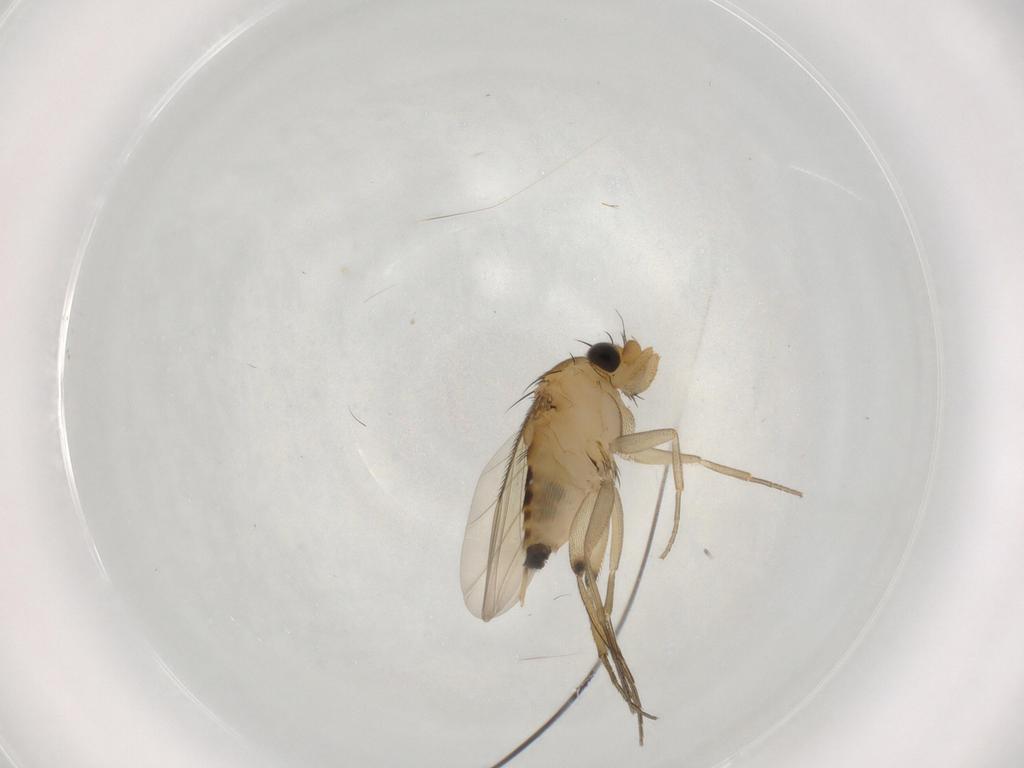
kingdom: Animalia
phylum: Arthropoda
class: Insecta
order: Diptera
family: Phoridae
